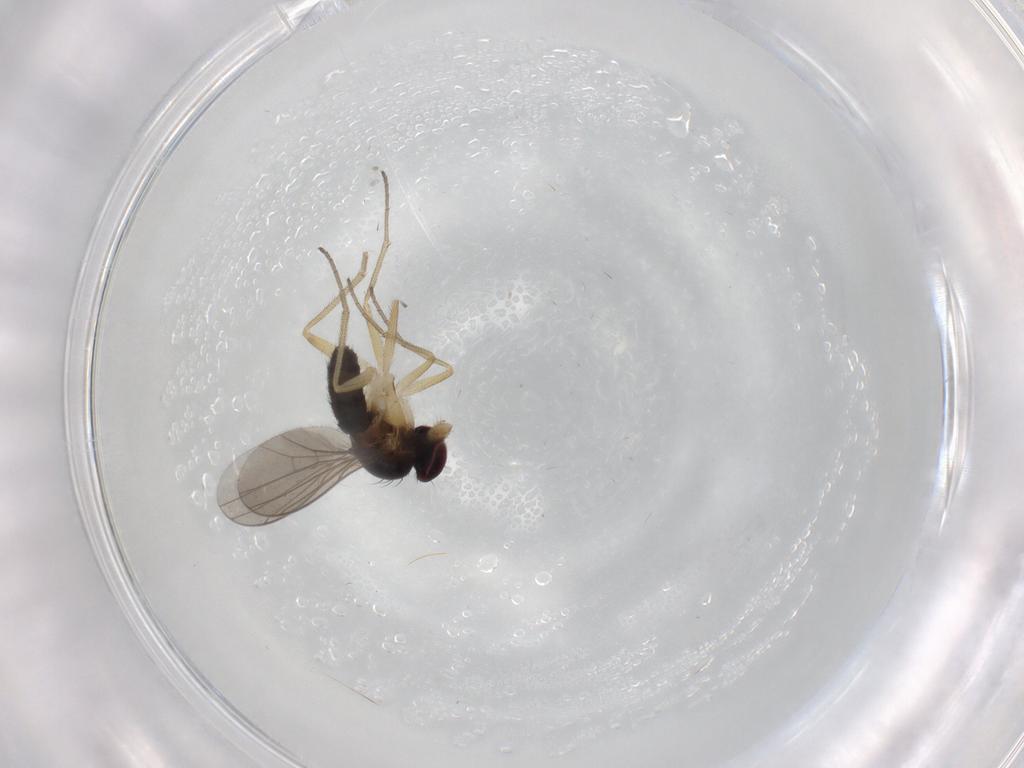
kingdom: Animalia
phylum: Arthropoda
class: Insecta
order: Diptera
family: Dolichopodidae
